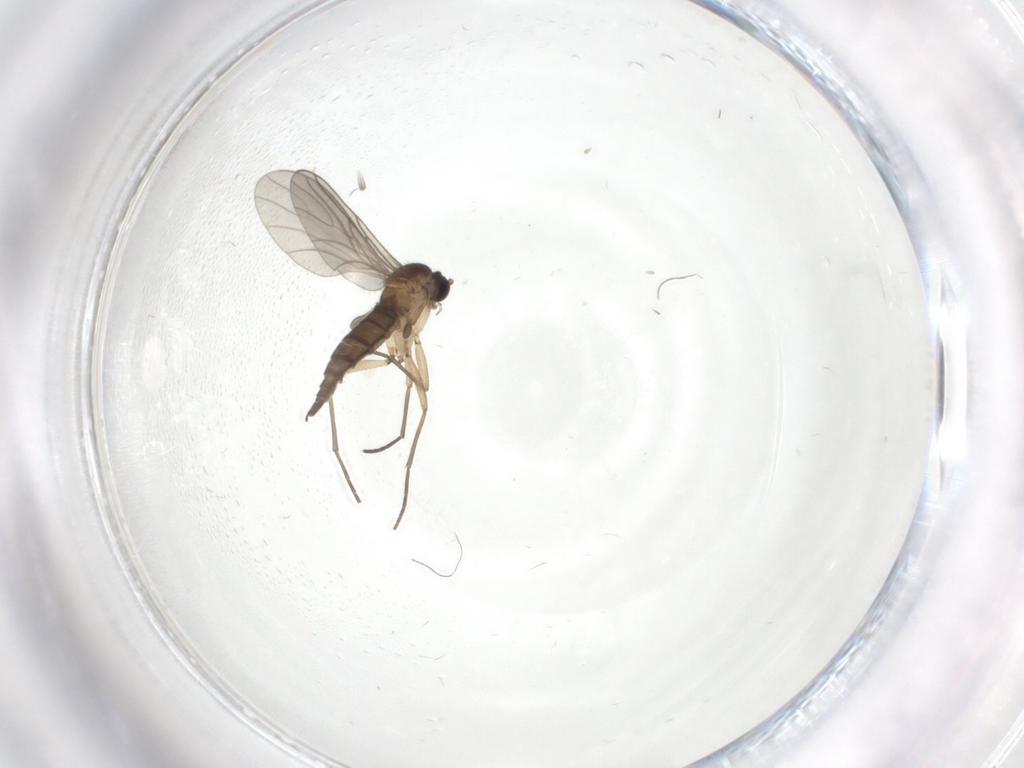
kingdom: Animalia
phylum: Arthropoda
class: Insecta
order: Diptera
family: Sciaridae
